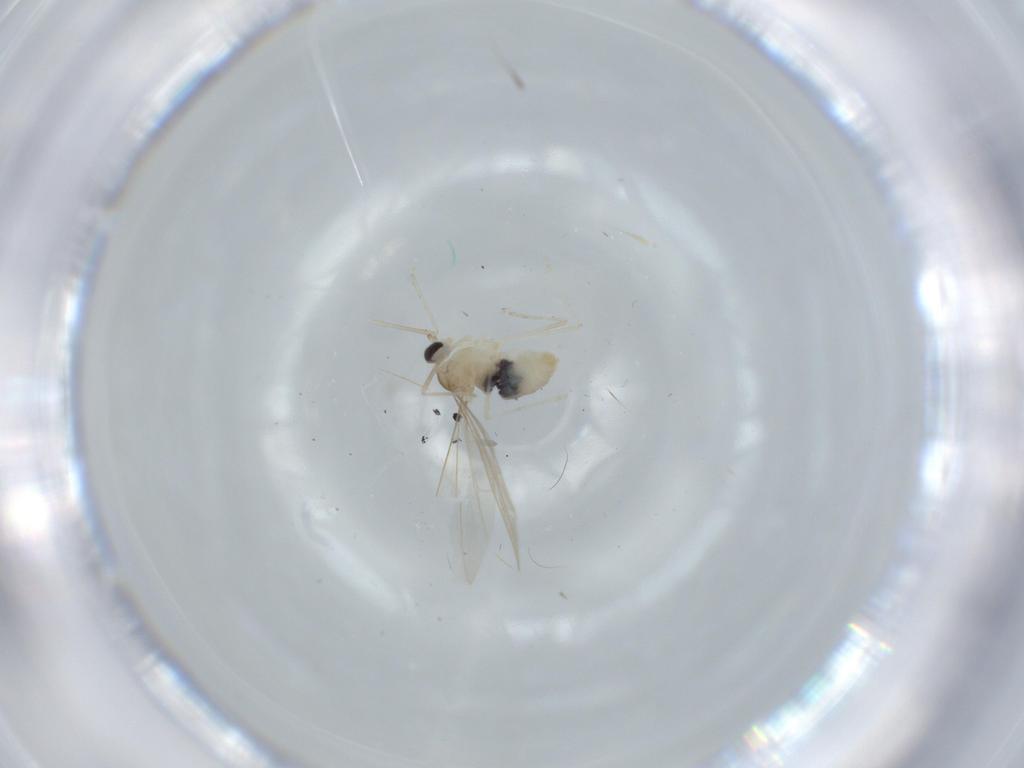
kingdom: Animalia
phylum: Arthropoda
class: Insecta
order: Diptera
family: Cecidomyiidae
